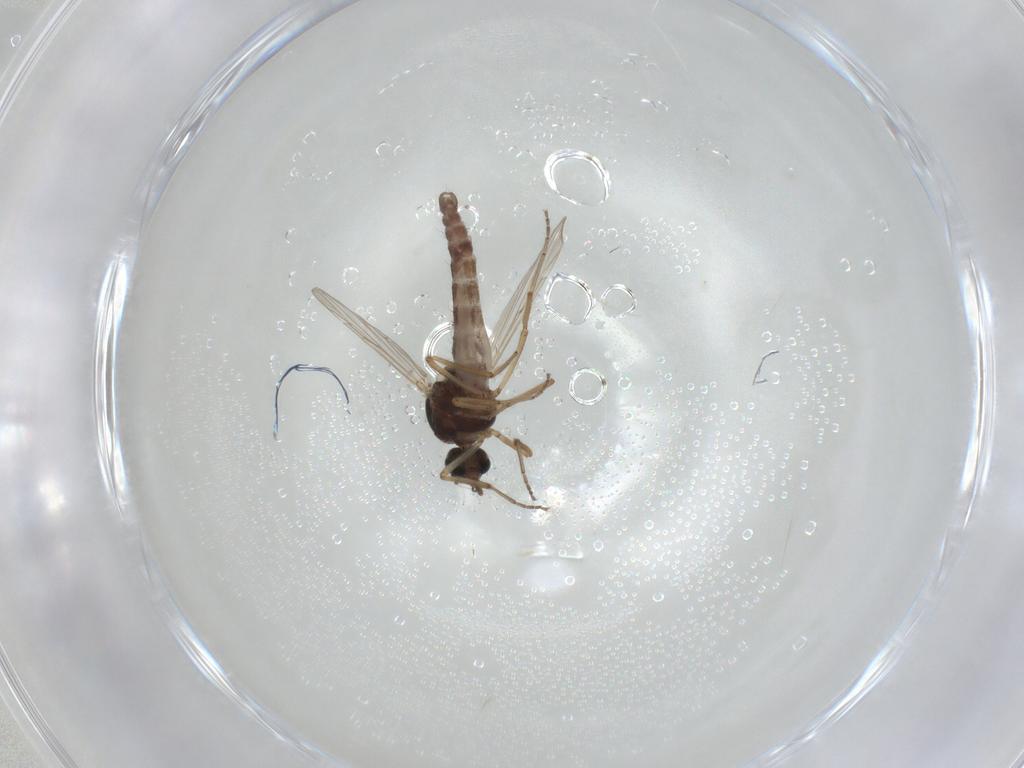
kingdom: Animalia
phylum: Arthropoda
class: Insecta
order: Diptera
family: Ceratopogonidae
